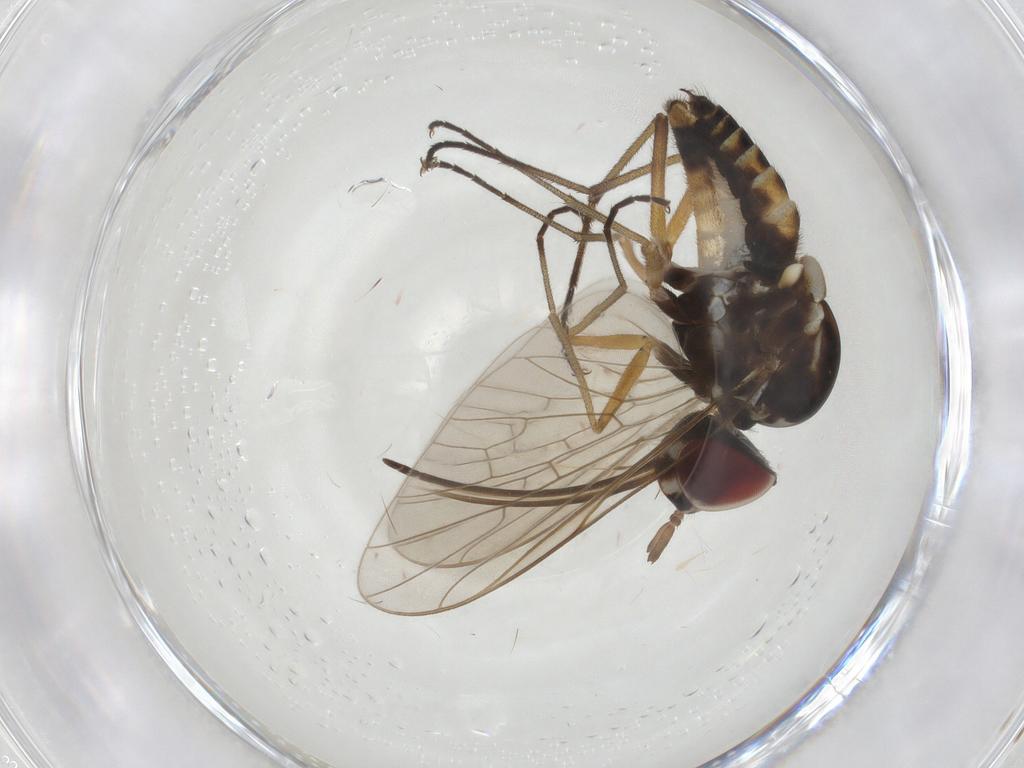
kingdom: Animalia
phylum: Arthropoda
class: Insecta
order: Diptera
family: Bombyliidae
